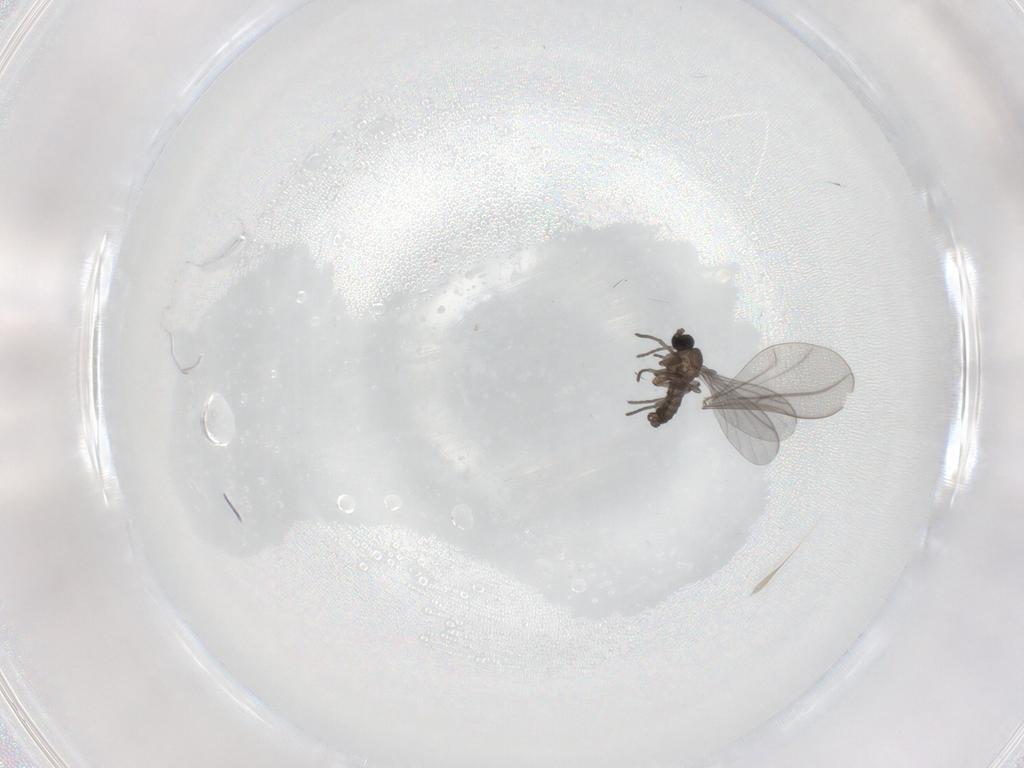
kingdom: Animalia
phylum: Arthropoda
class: Insecta
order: Diptera
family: Sciaridae
